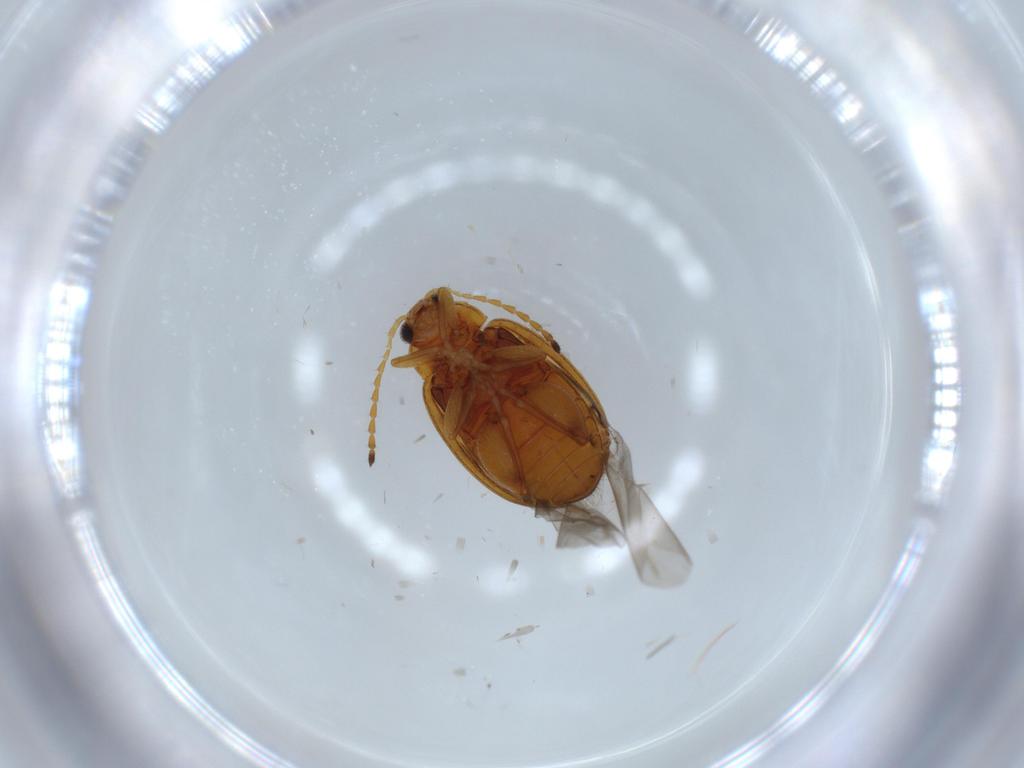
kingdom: Animalia
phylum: Arthropoda
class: Insecta
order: Coleoptera
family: Chrysomelidae
